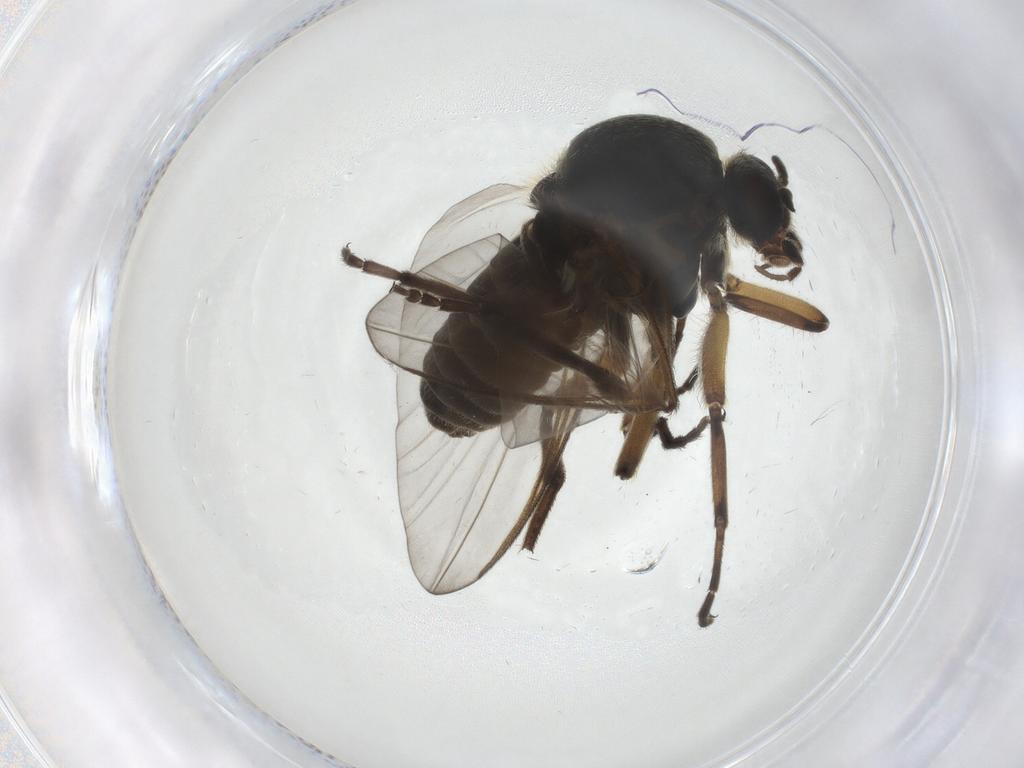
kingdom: Animalia
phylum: Arthropoda
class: Insecta
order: Diptera
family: Simuliidae
